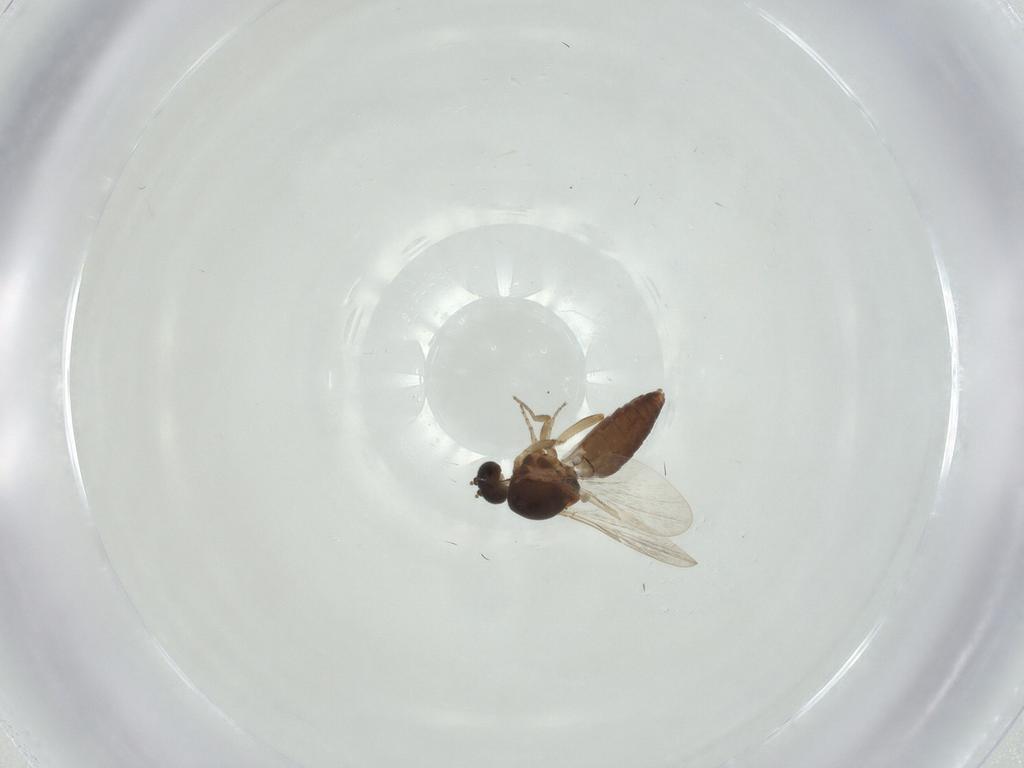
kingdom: Animalia
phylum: Arthropoda
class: Insecta
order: Diptera
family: Ceratopogonidae
